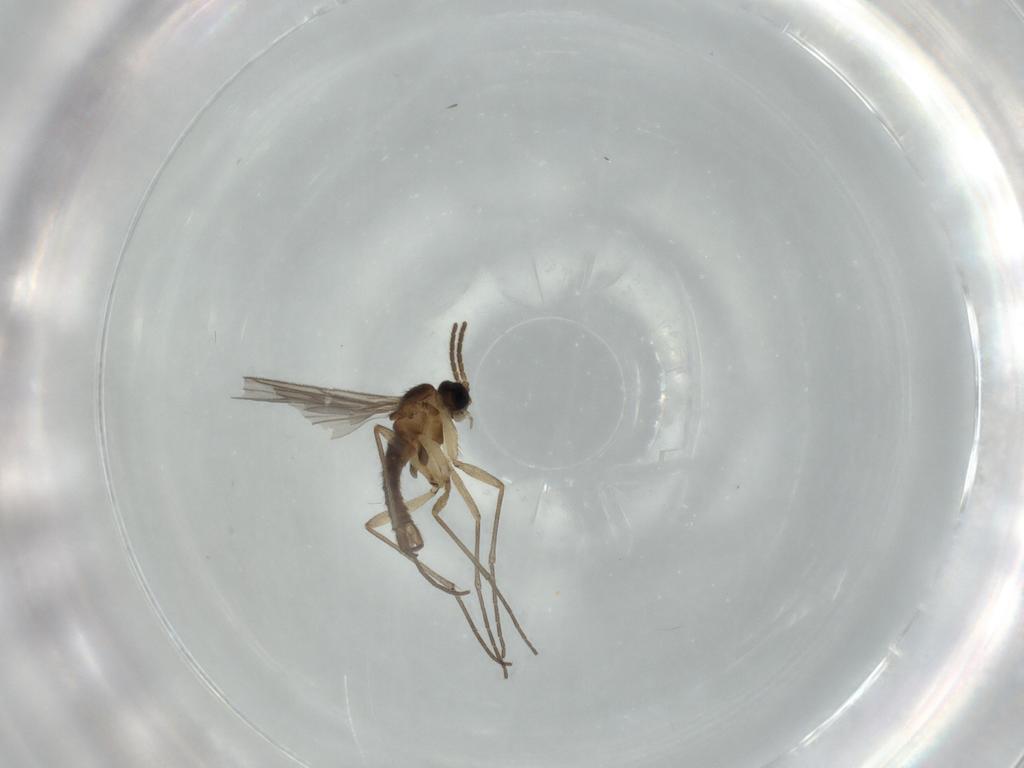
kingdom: Animalia
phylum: Arthropoda
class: Insecta
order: Diptera
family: Sciaridae
